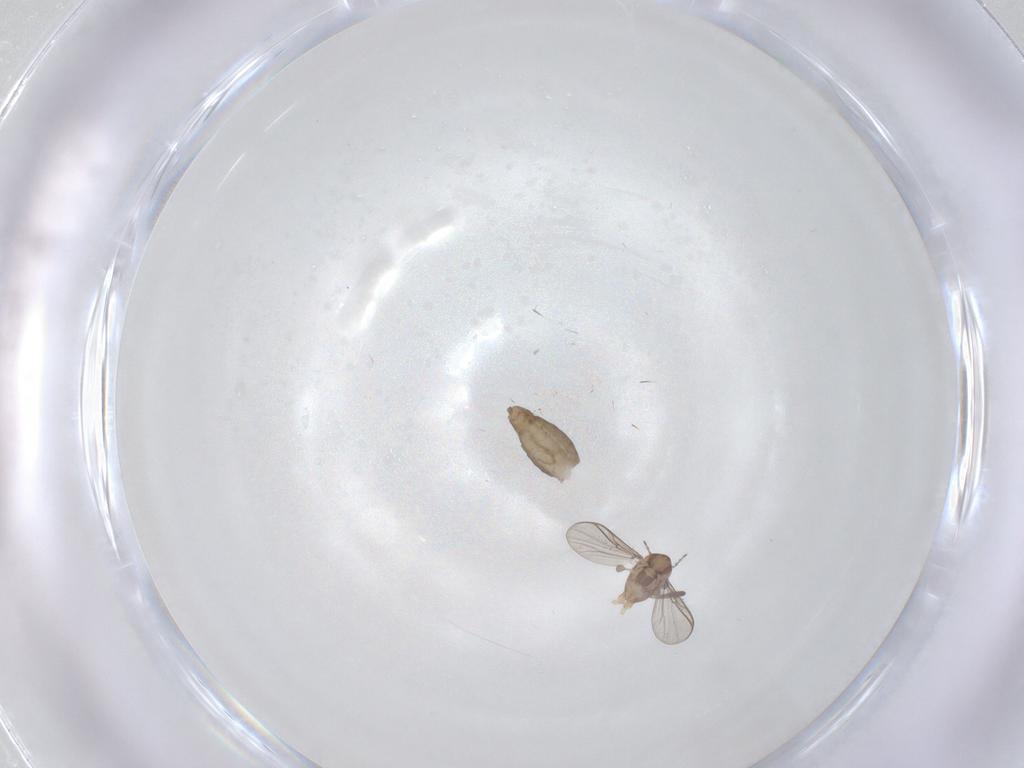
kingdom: Animalia
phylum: Arthropoda
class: Insecta
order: Diptera
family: Chironomidae
